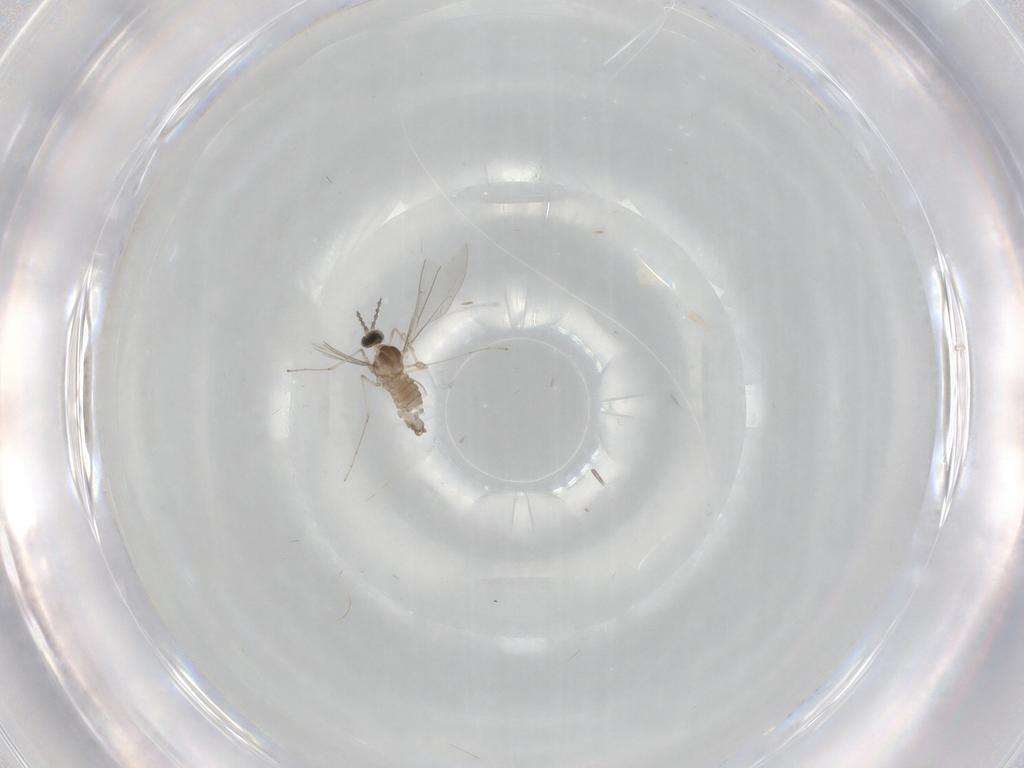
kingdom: Animalia
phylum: Arthropoda
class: Insecta
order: Diptera
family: Cecidomyiidae
